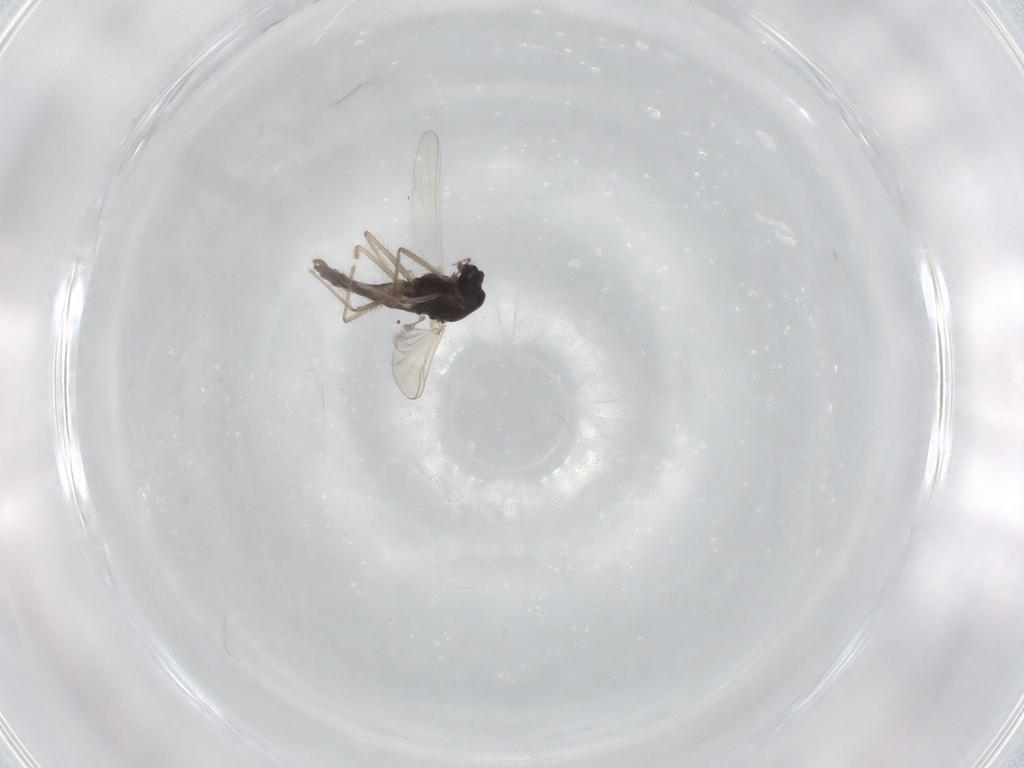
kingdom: Animalia
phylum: Arthropoda
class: Insecta
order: Diptera
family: Chironomidae
